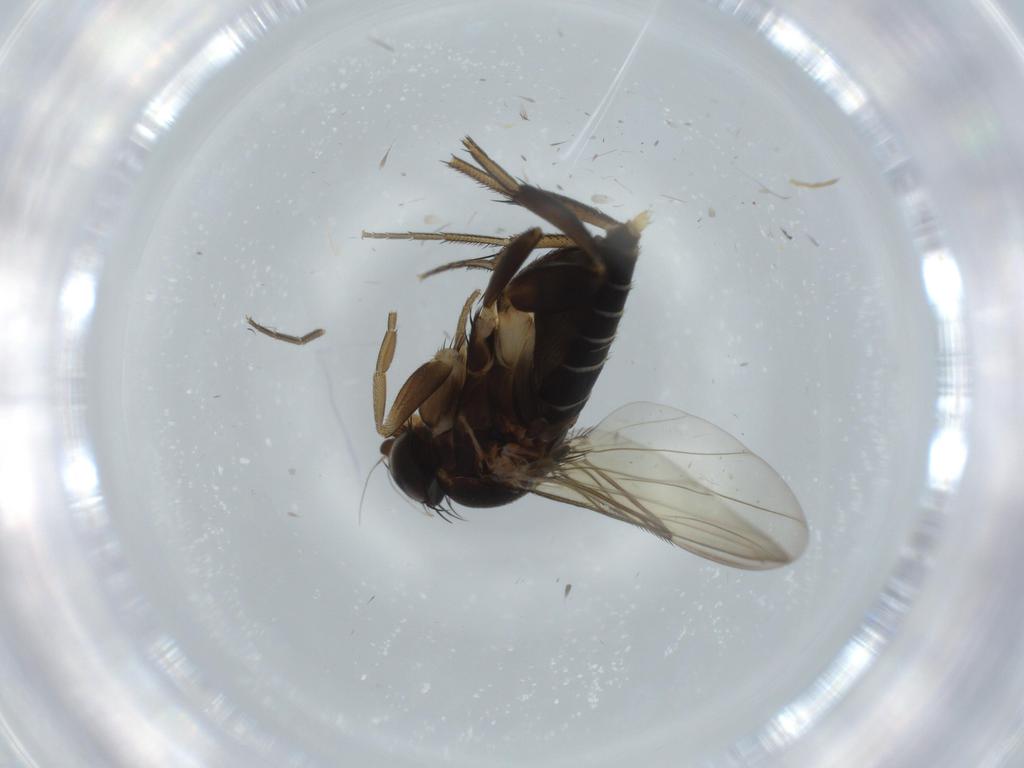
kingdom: Animalia
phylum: Arthropoda
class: Insecta
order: Diptera
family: Phoridae
